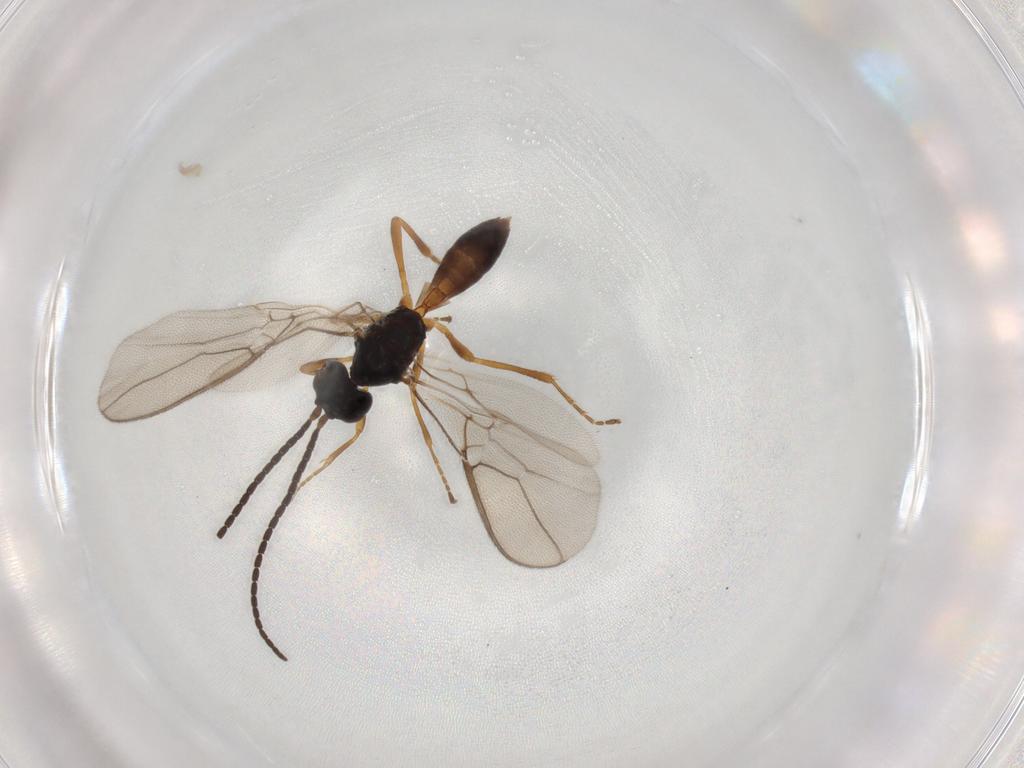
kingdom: Animalia
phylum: Arthropoda
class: Insecta
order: Hymenoptera
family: Braconidae
